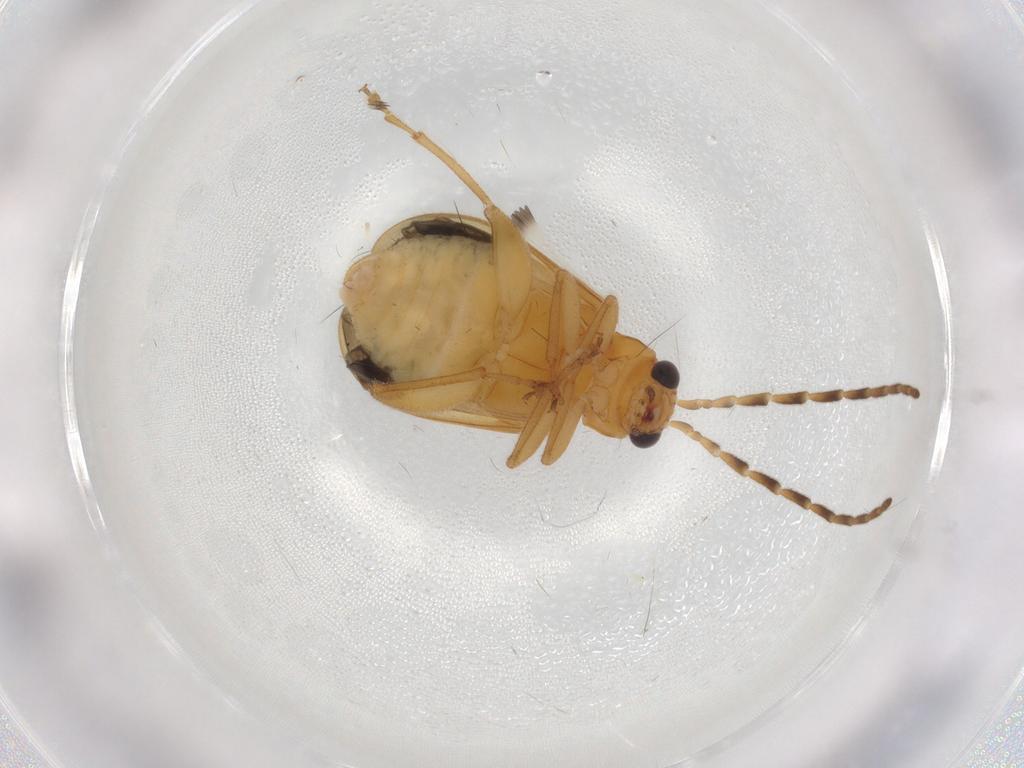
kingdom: Animalia
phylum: Arthropoda
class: Insecta
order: Coleoptera
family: Chrysomelidae
